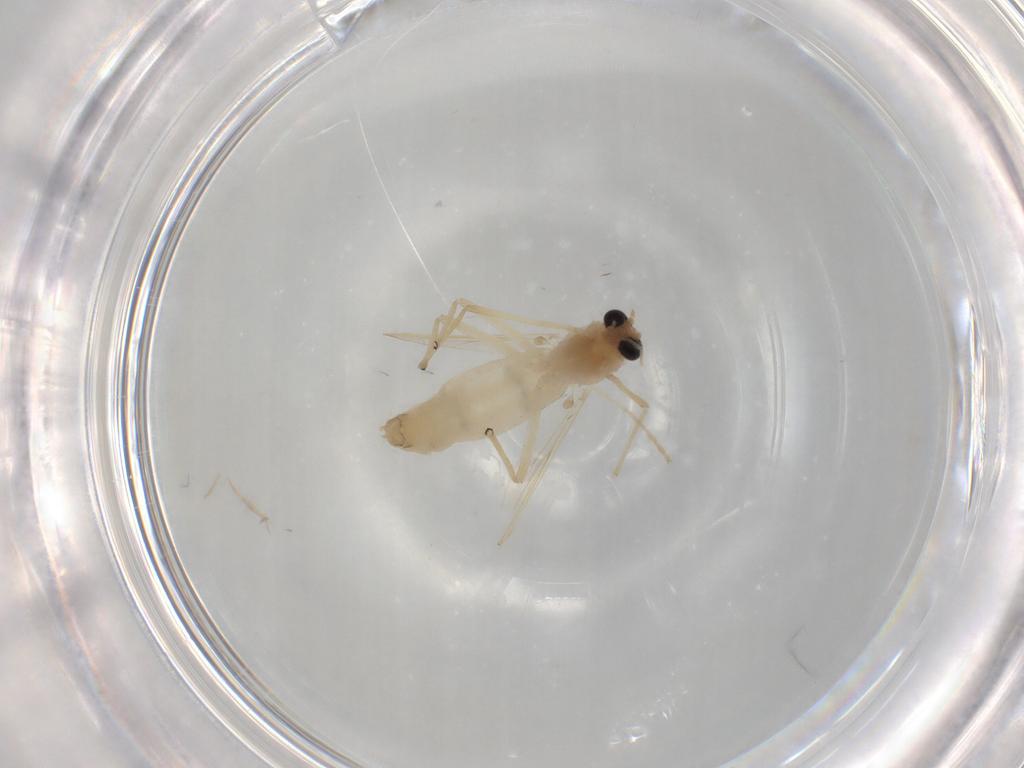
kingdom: Animalia
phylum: Arthropoda
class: Insecta
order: Diptera
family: Chironomidae
